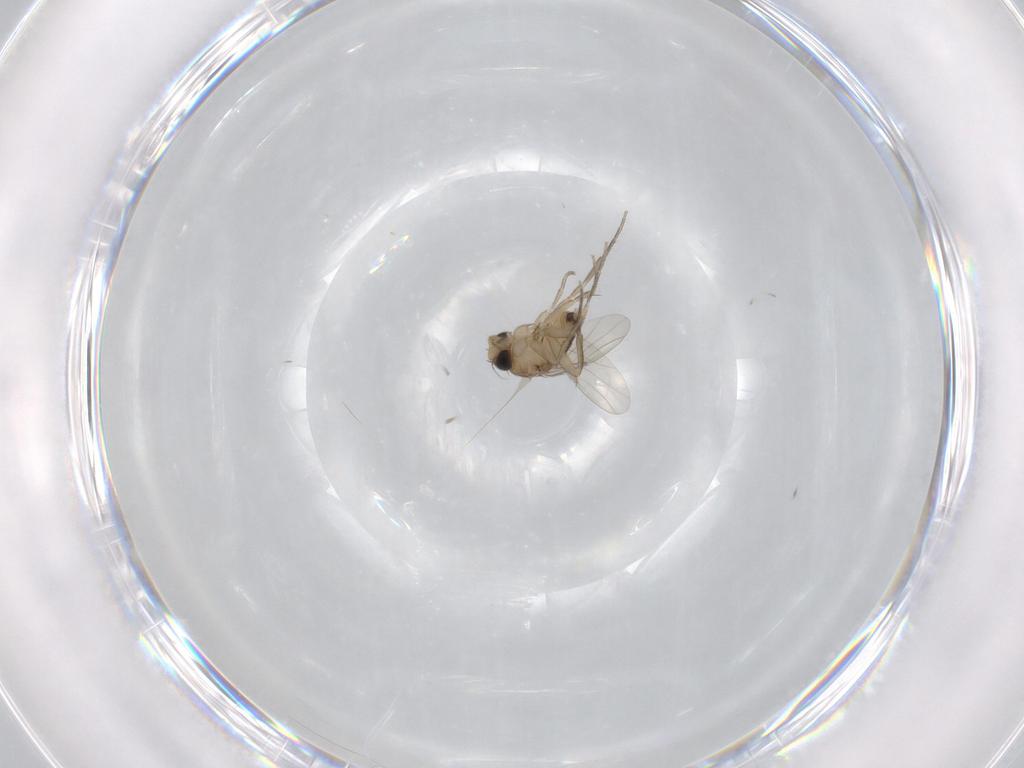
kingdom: Animalia
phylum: Arthropoda
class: Insecta
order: Diptera
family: Phoridae
